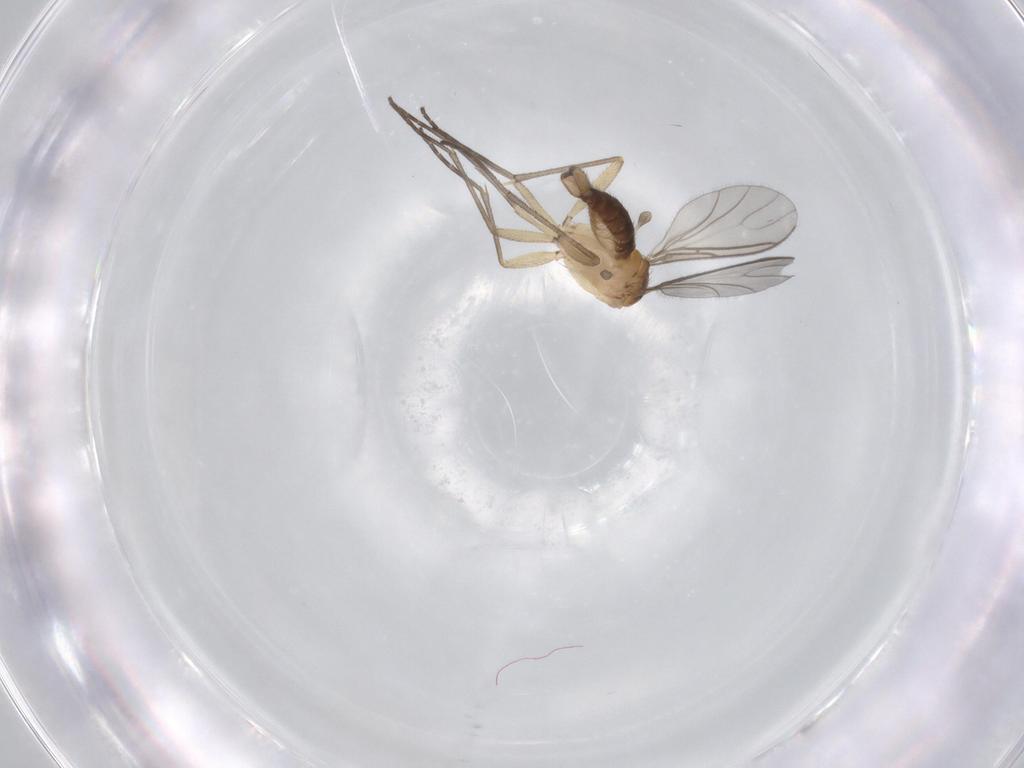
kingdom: Animalia
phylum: Arthropoda
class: Insecta
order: Diptera
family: Sciaridae
